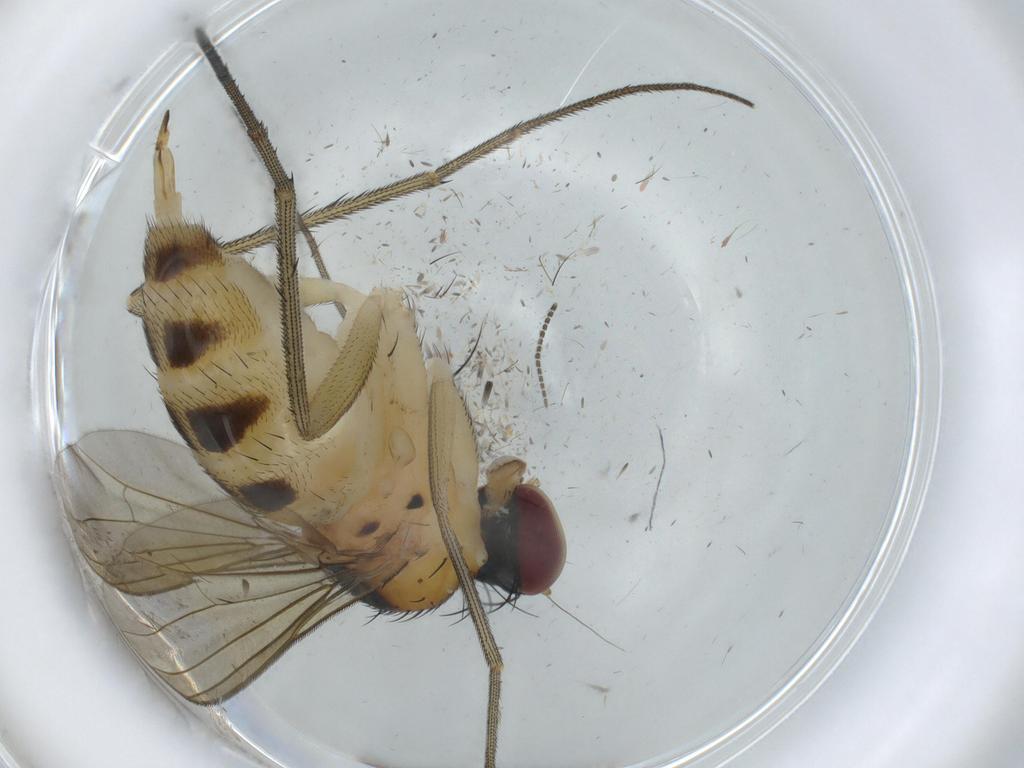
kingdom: Animalia
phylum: Arthropoda
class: Insecta
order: Diptera
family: Dolichopodidae
